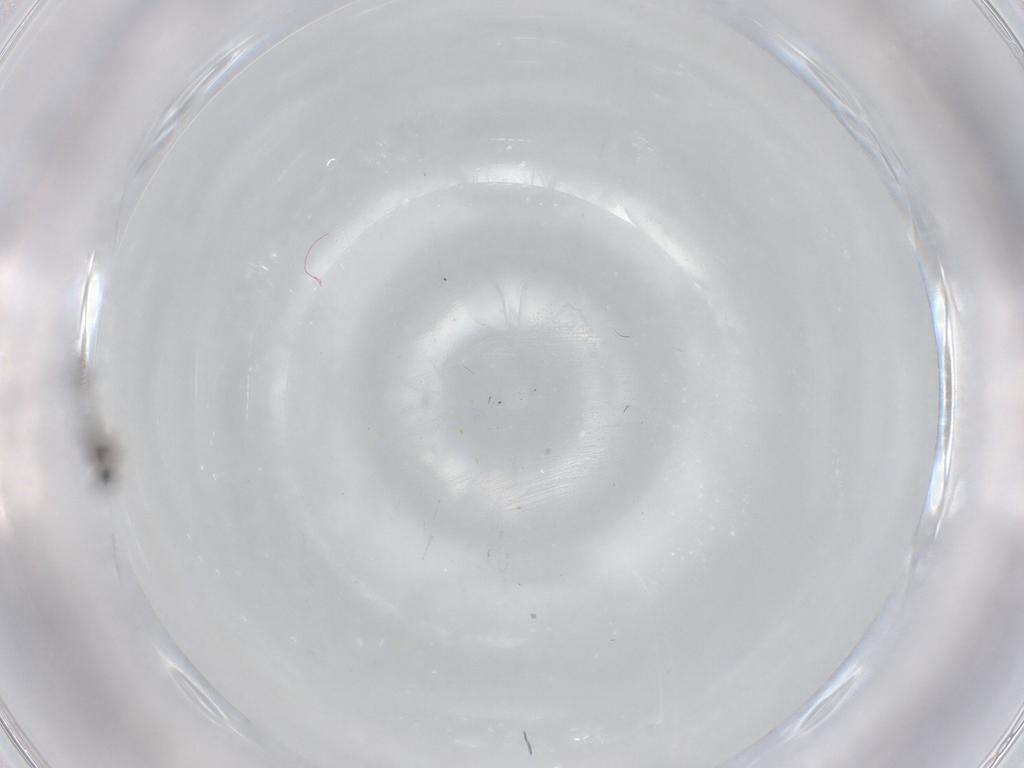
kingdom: Animalia
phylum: Arthropoda
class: Insecta
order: Diptera
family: Cecidomyiidae
